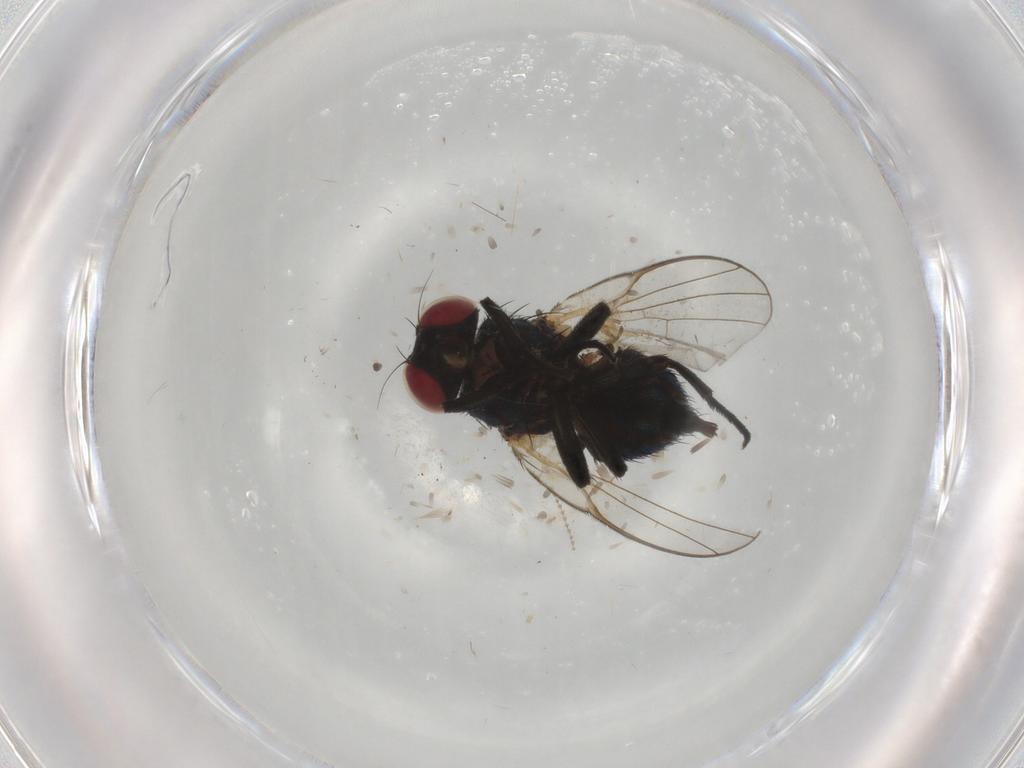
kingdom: Animalia
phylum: Arthropoda
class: Insecta
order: Diptera
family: Agromyzidae
